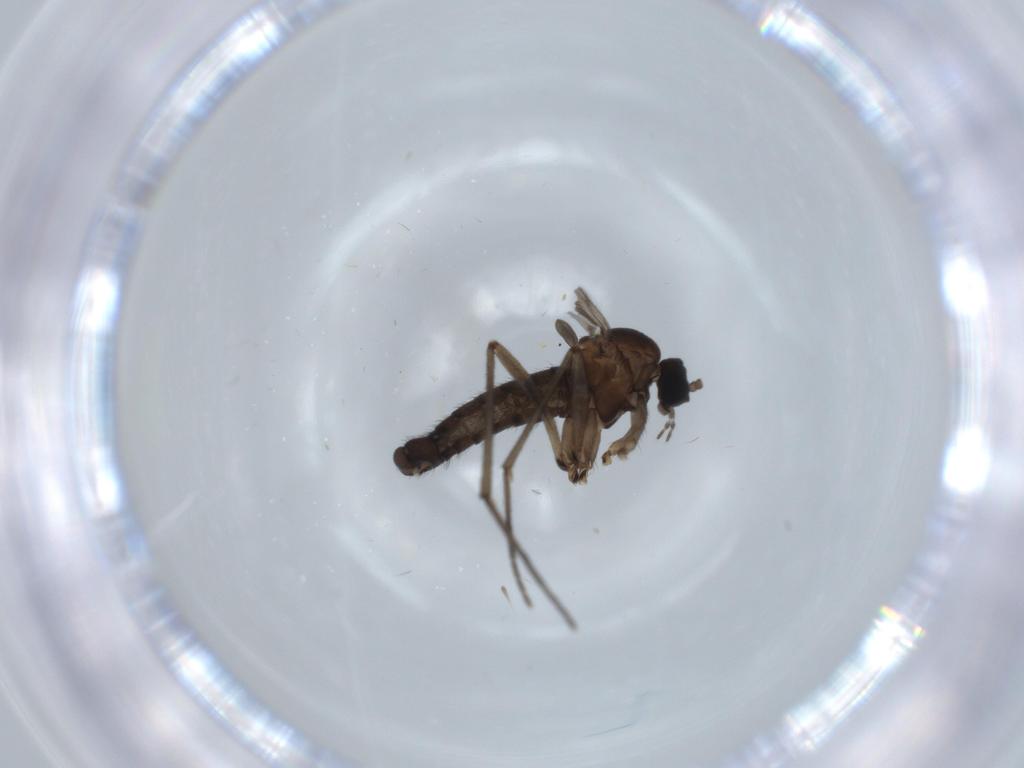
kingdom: Animalia
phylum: Arthropoda
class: Insecta
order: Diptera
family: Sciaridae
